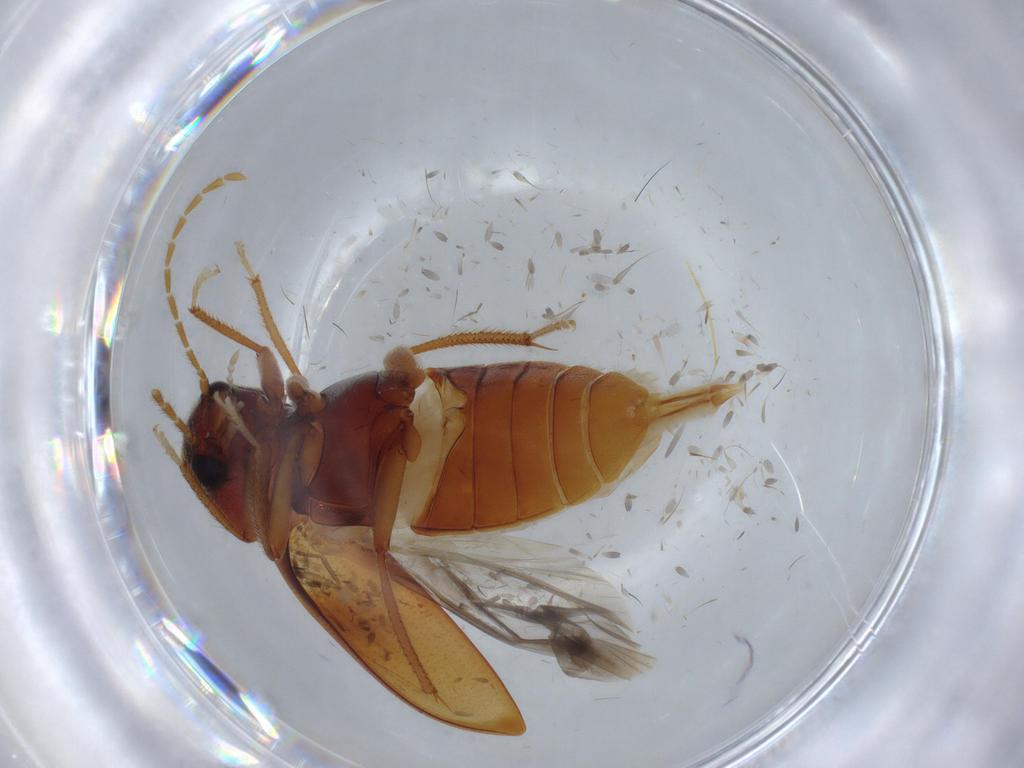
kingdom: Animalia
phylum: Arthropoda
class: Insecta
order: Coleoptera
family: Ptilodactylidae
